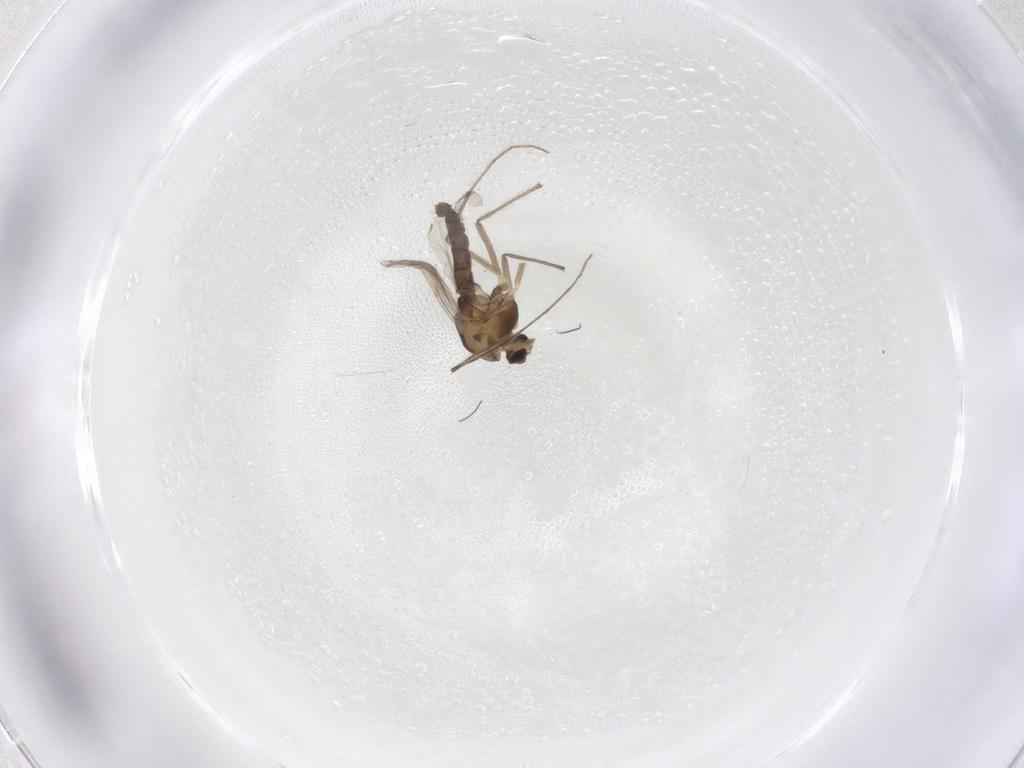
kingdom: Animalia
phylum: Arthropoda
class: Insecta
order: Diptera
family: Chironomidae
